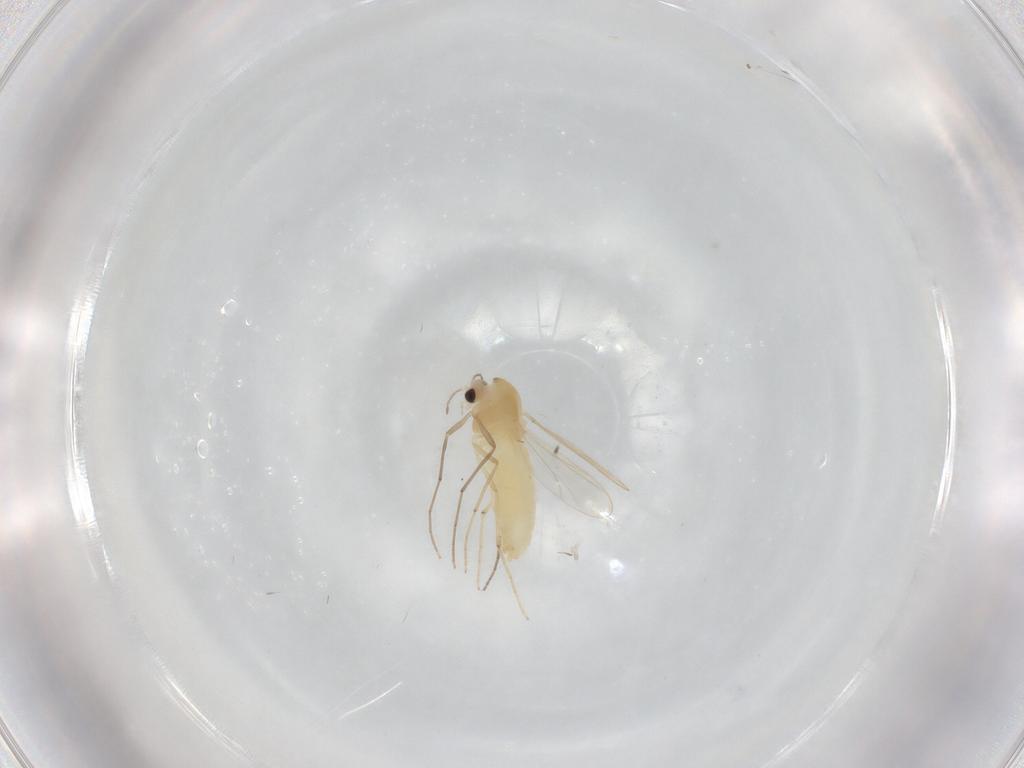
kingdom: Animalia
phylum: Arthropoda
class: Insecta
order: Diptera
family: Chironomidae
